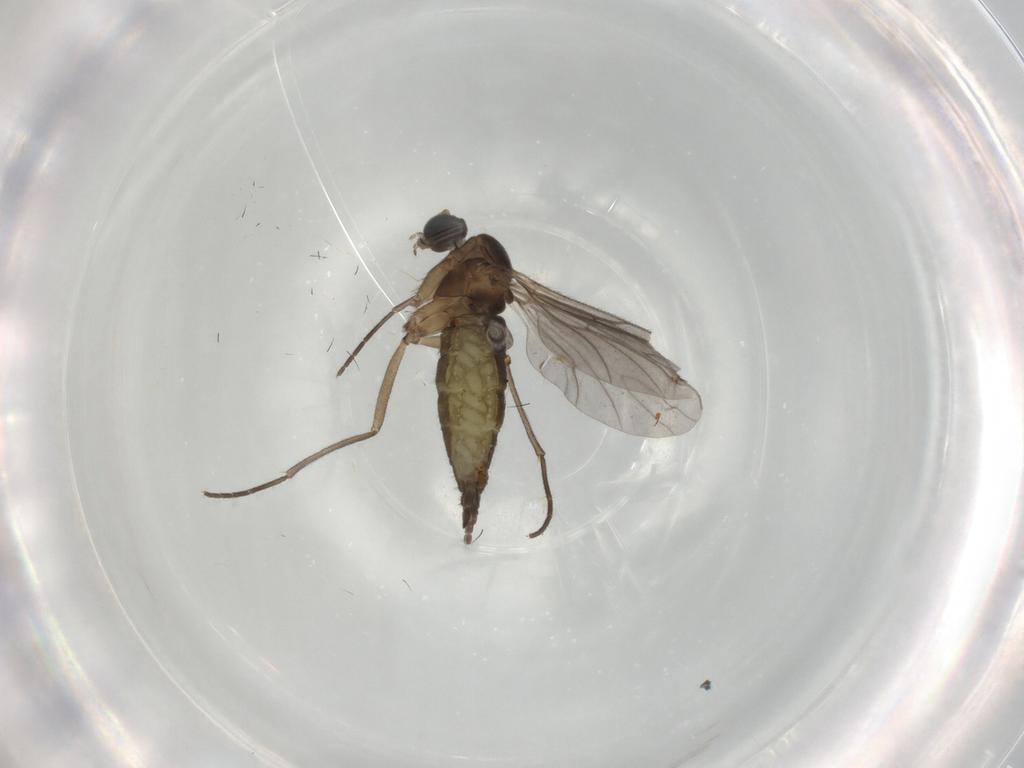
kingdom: Animalia
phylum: Arthropoda
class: Insecta
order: Diptera
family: Sciaridae
